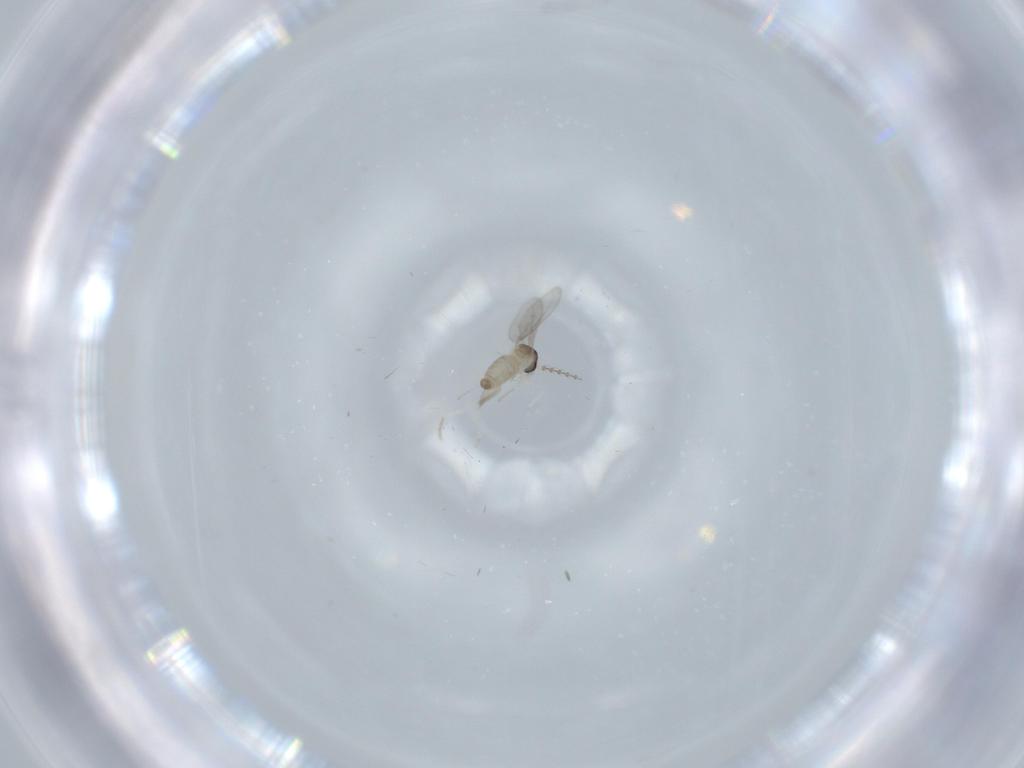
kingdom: Animalia
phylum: Arthropoda
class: Insecta
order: Diptera
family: Cecidomyiidae
